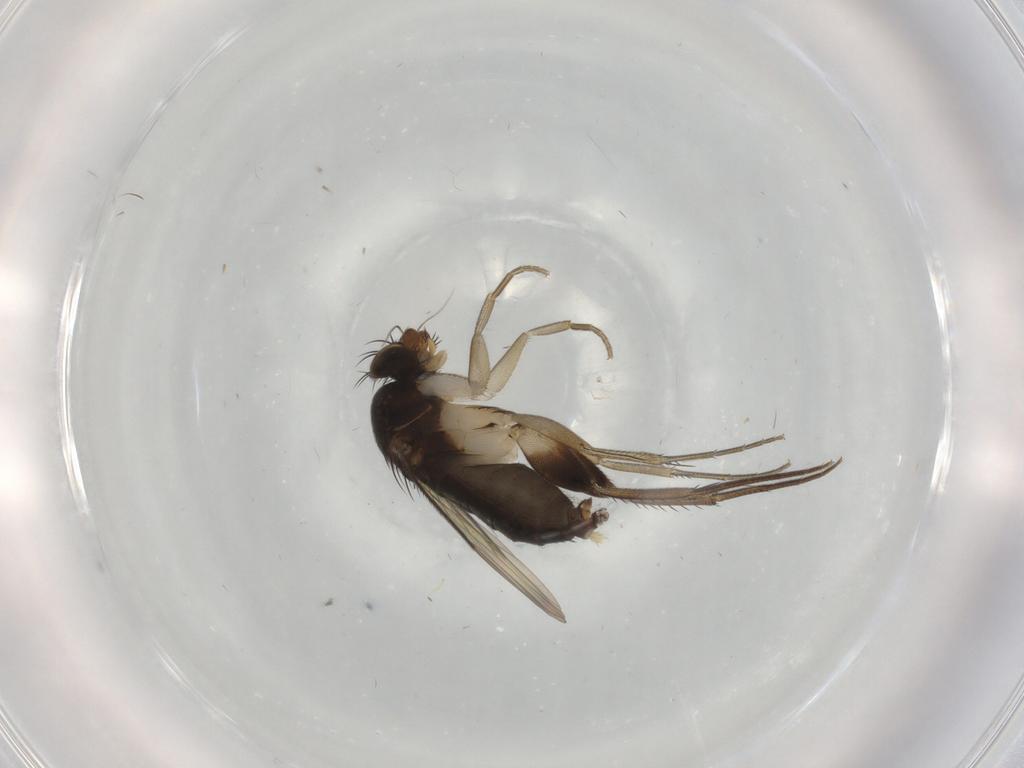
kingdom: Animalia
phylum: Arthropoda
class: Insecta
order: Diptera
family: Phoridae
